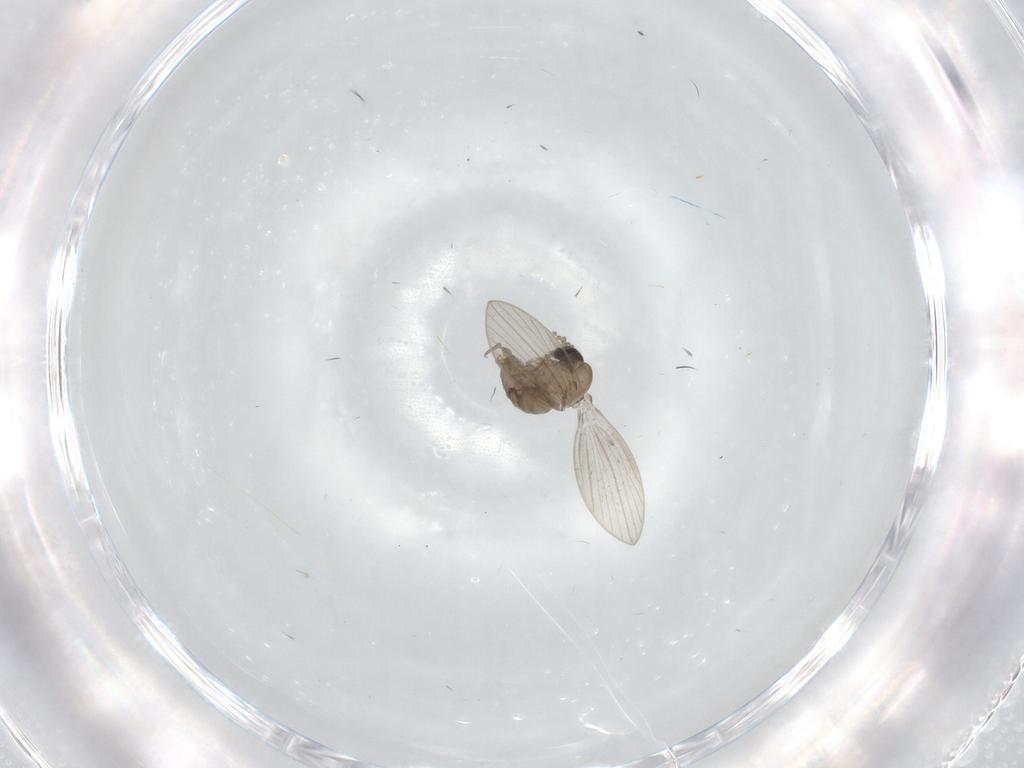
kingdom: Animalia
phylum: Arthropoda
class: Insecta
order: Diptera
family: Psychodidae
